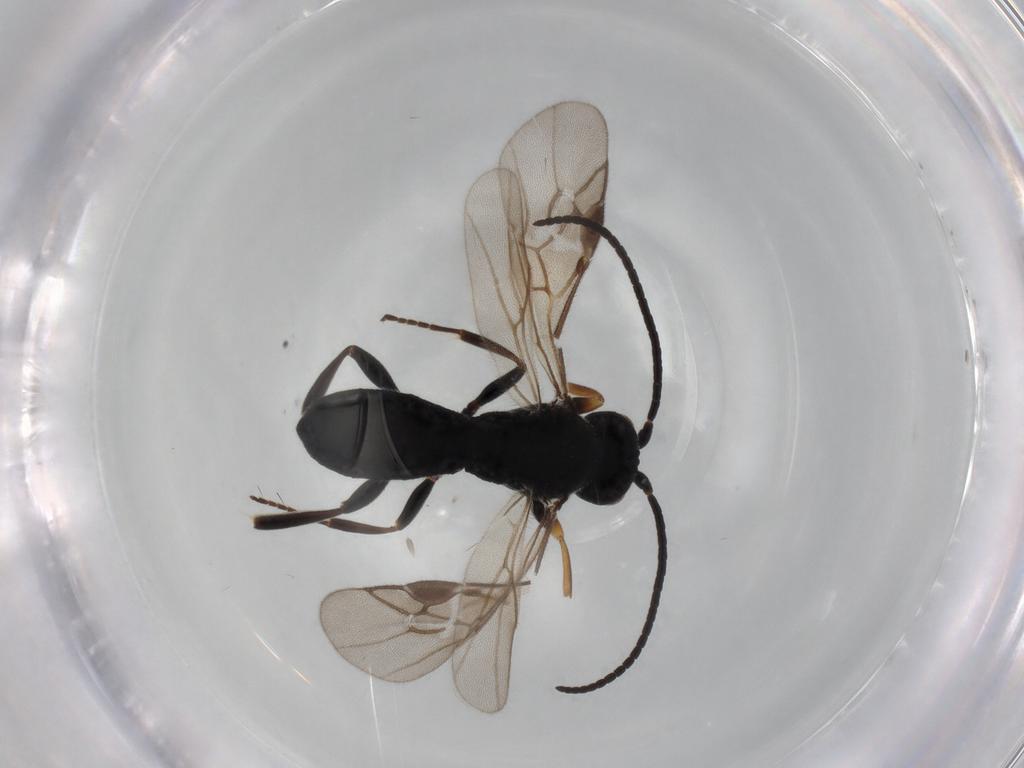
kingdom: Animalia
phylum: Arthropoda
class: Insecta
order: Hymenoptera
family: Braconidae
